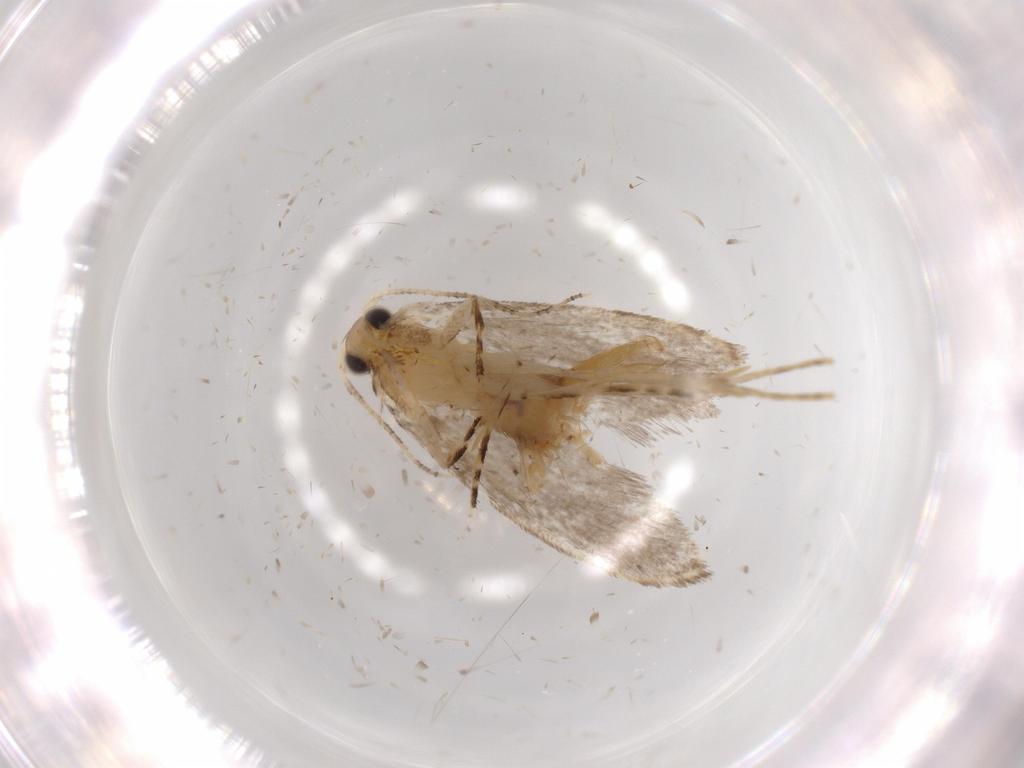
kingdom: Animalia
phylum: Arthropoda
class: Insecta
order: Lepidoptera
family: Tineidae
